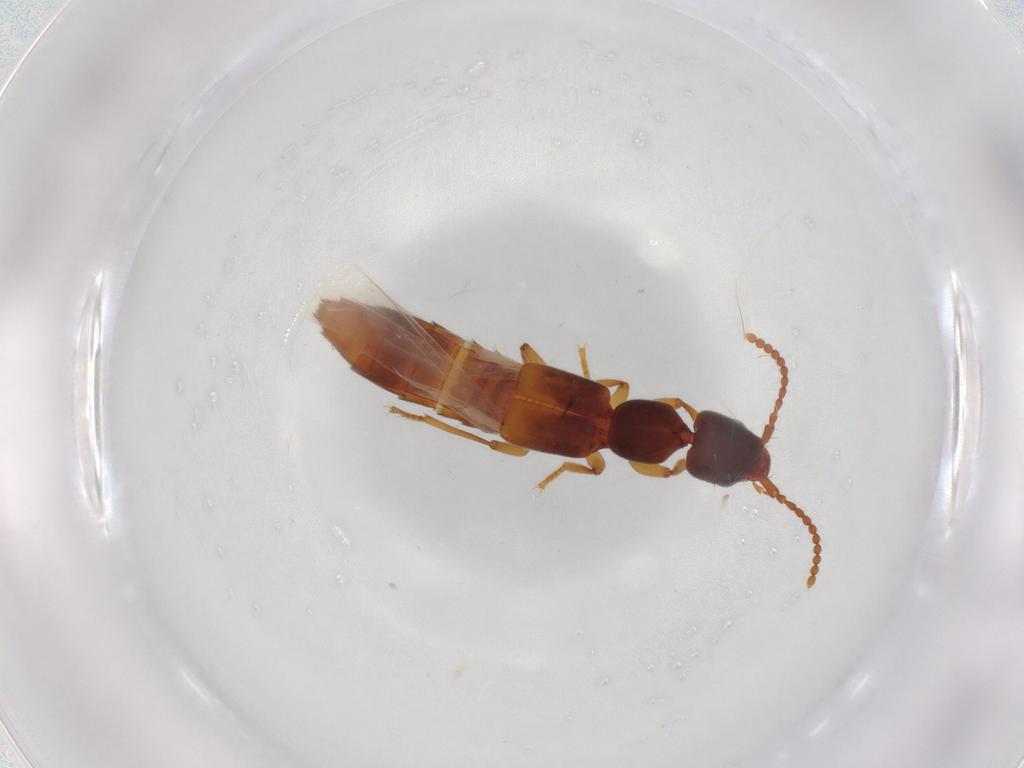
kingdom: Animalia
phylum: Arthropoda
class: Insecta
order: Coleoptera
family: Staphylinidae
